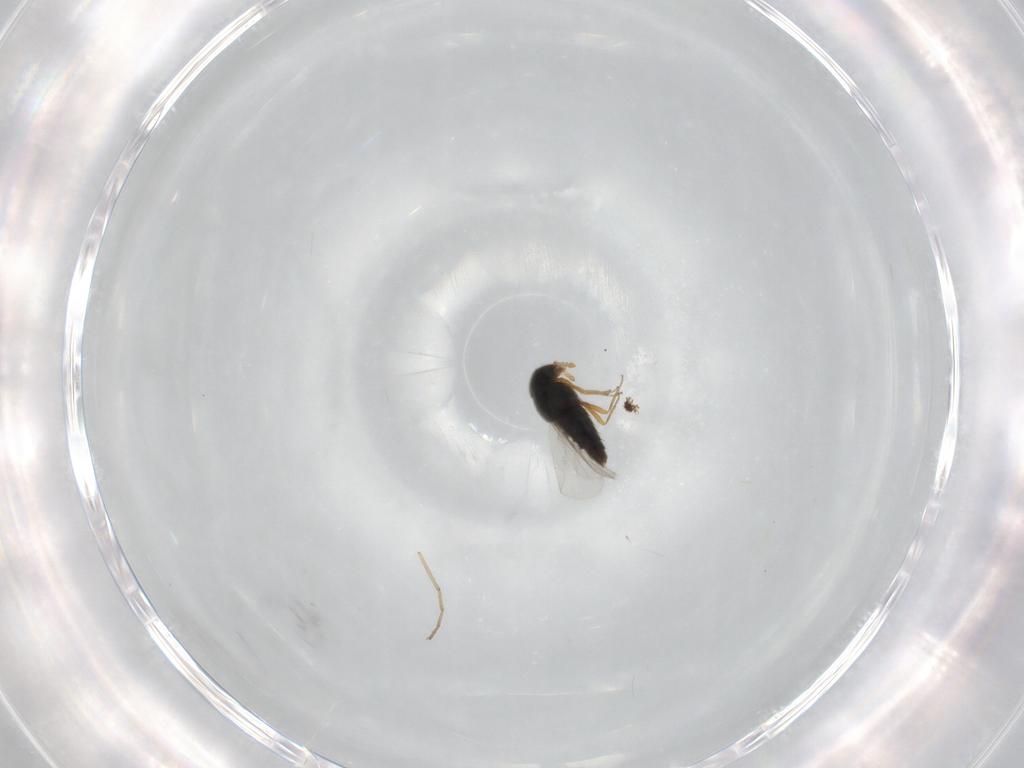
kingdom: Animalia
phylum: Arthropoda
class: Insecta
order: Coleoptera
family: Staphylinidae
